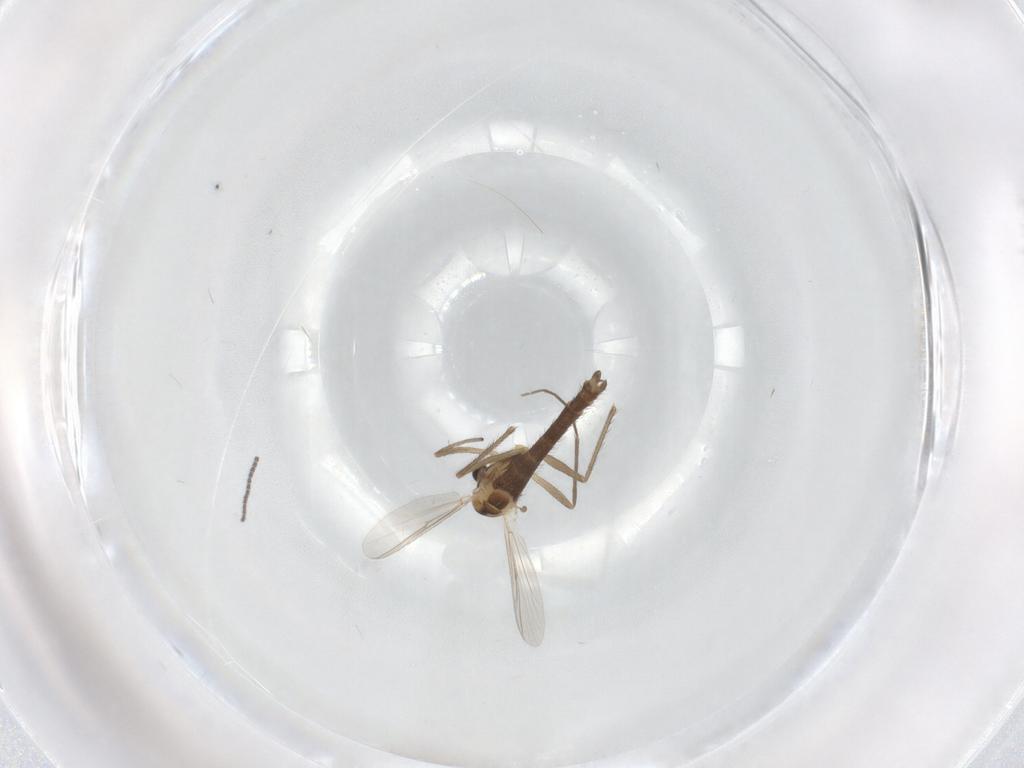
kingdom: Animalia
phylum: Arthropoda
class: Insecta
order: Diptera
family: Chironomidae
